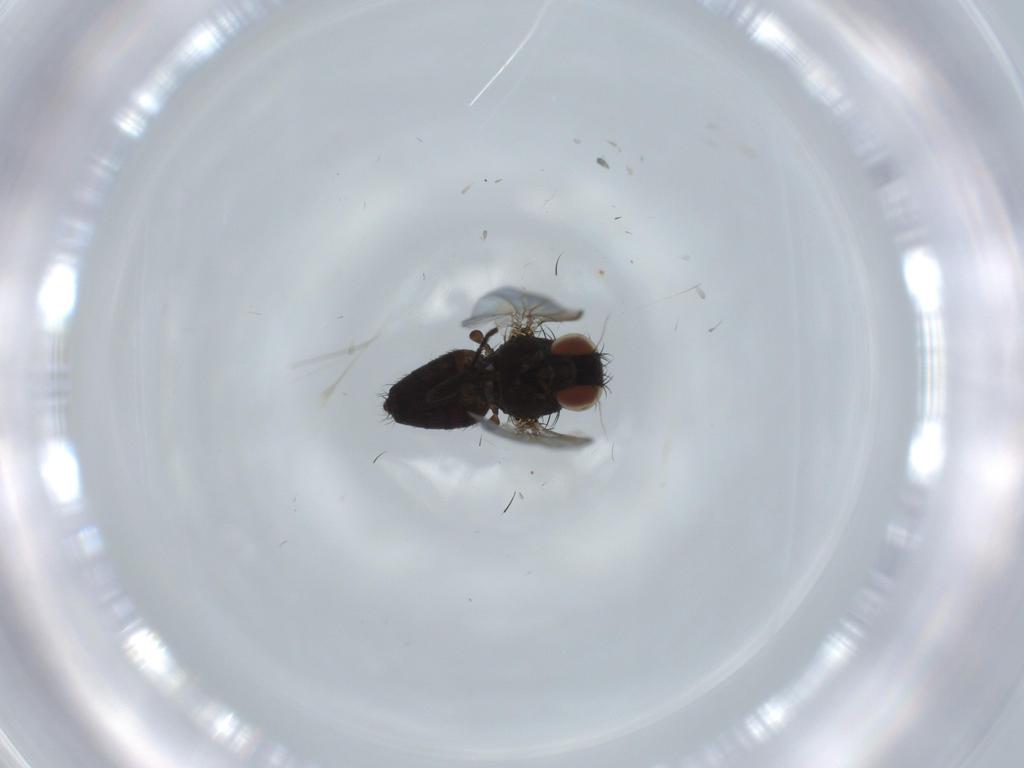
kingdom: Animalia
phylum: Arthropoda
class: Insecta
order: Diptera
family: Milichiidae
